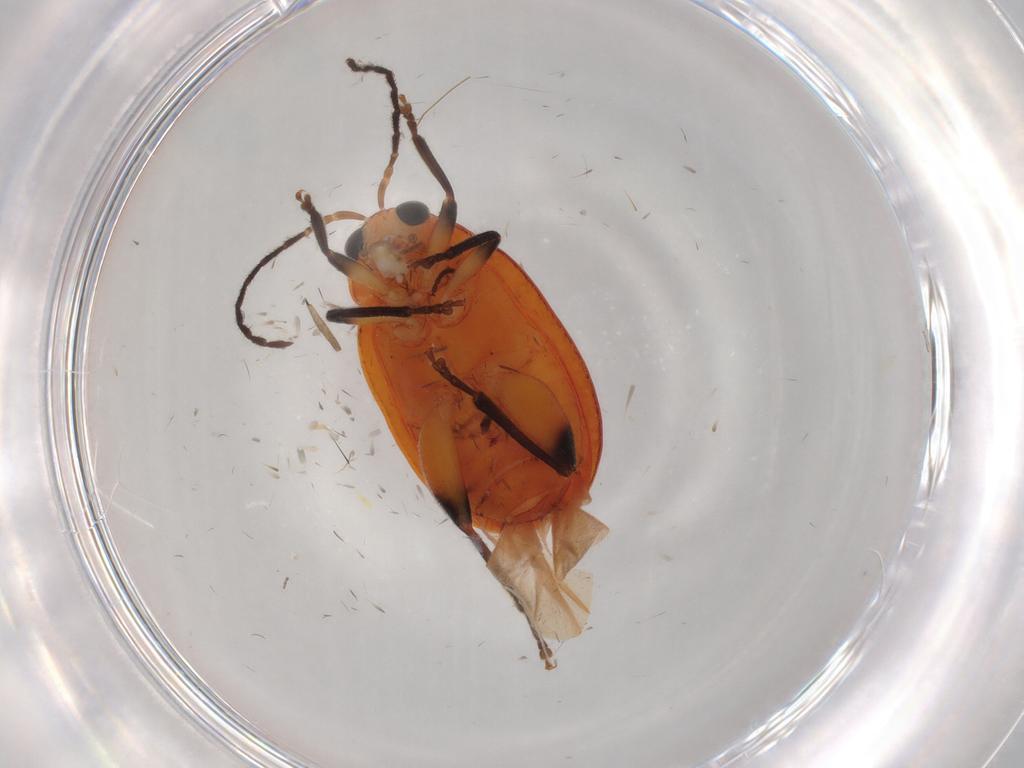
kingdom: Animalia
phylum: Arthropoda
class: Insecta
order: Coleoptera
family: Chrysomelidae
